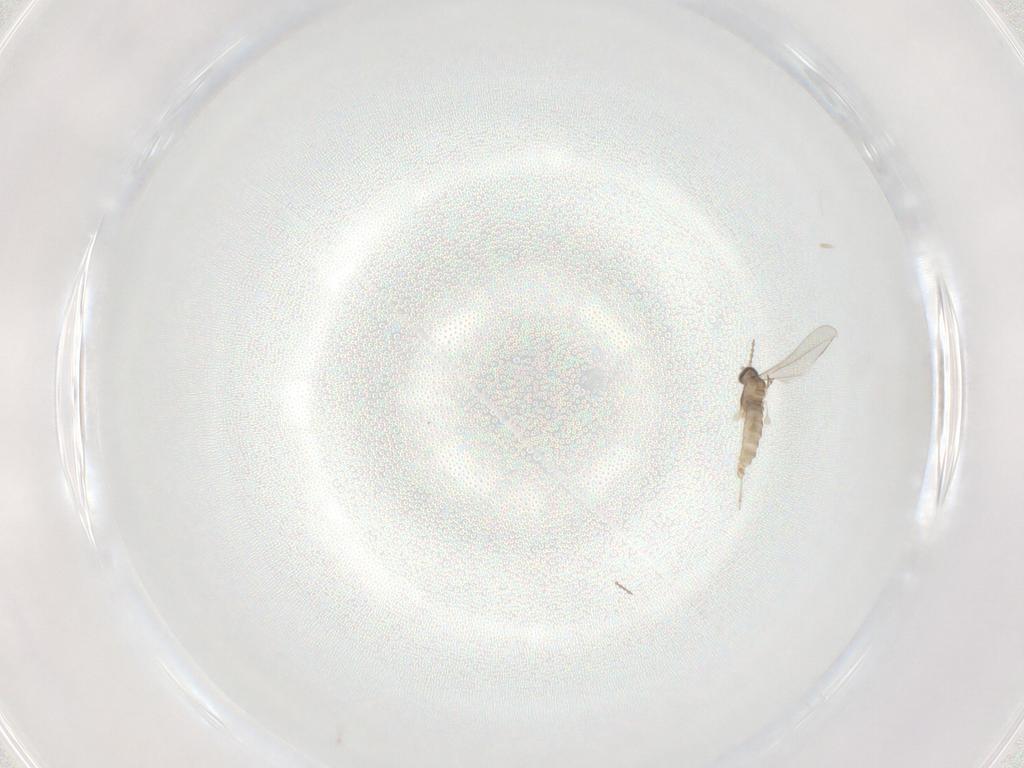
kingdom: Animalia
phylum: Arthropoda
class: Insecta
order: Diptera
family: Cecidomyiidae
